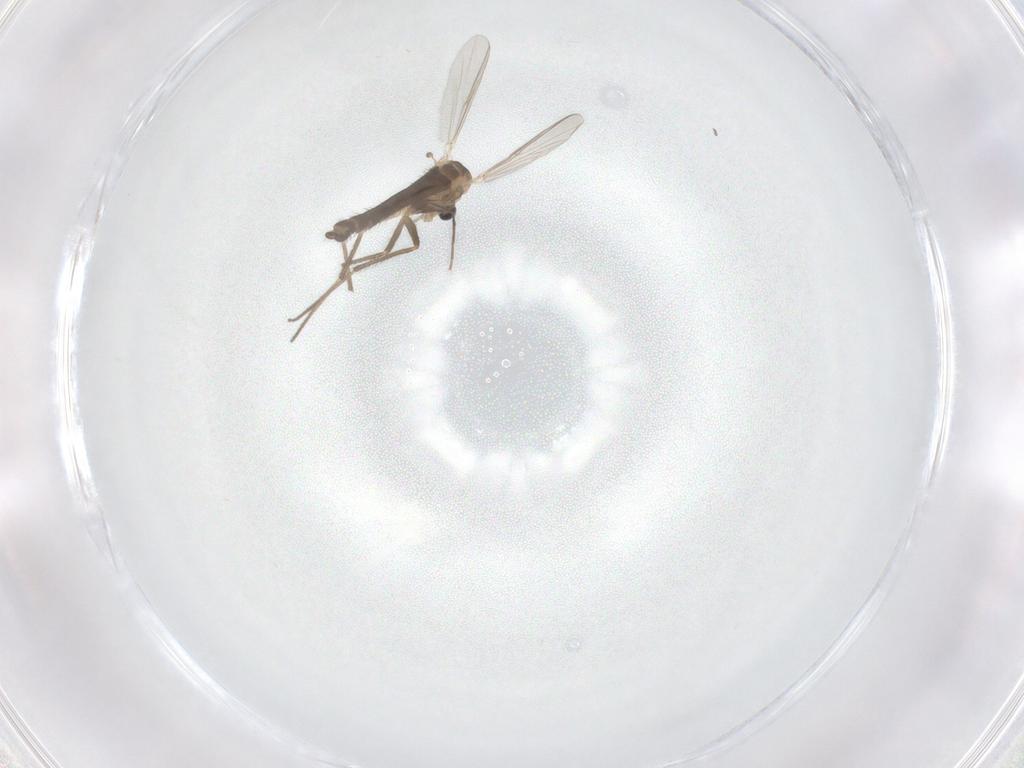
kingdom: Animalia
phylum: Arthropoda
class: Insecta
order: Diptera
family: Chironomidae
